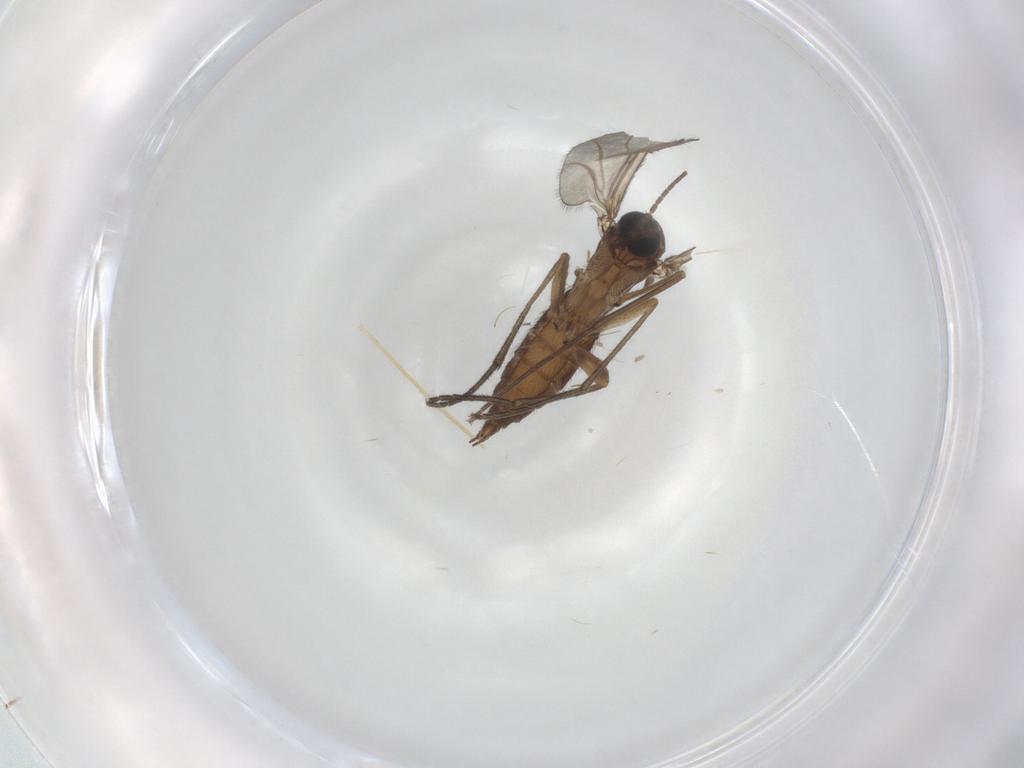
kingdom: Animalia
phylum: Arthropoda
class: Insecta
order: Diptera
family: Sciaridae
